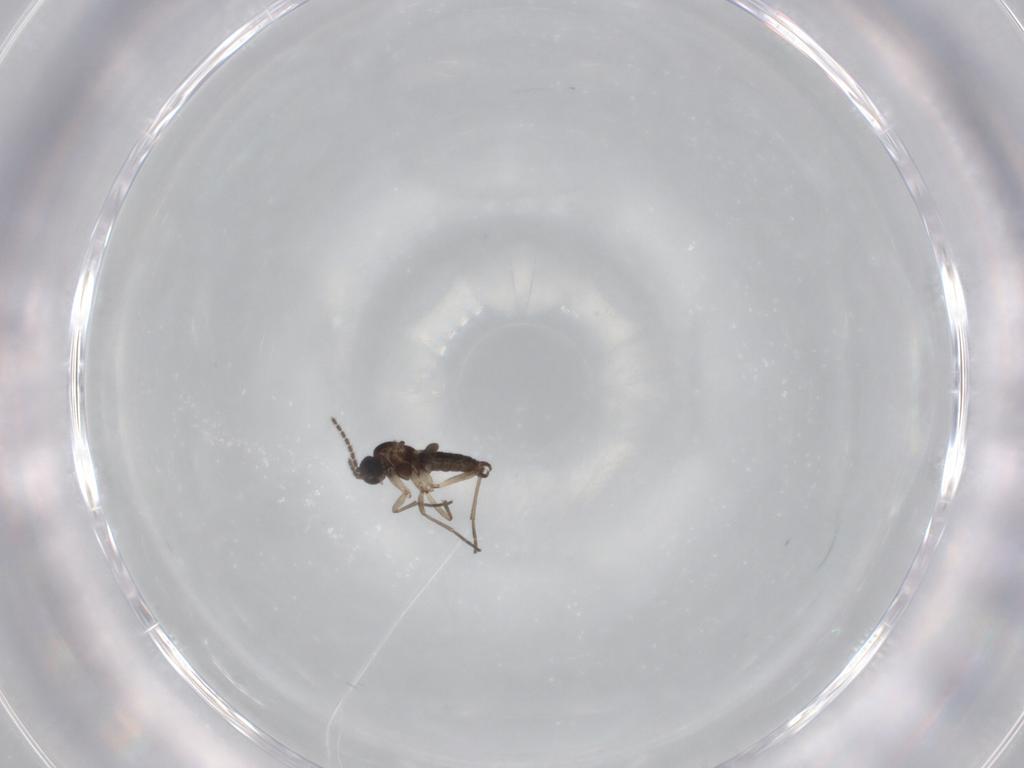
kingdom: Animalia
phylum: Arthropoda
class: Insecta
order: Diptera
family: Sciaridae
